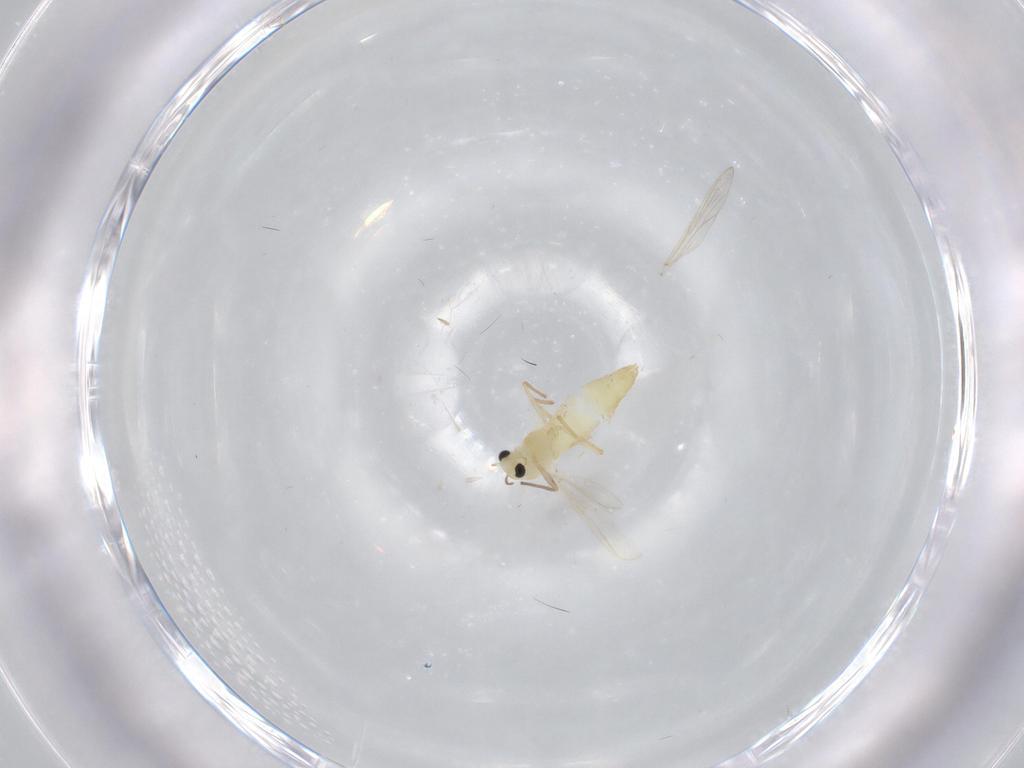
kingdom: Animalia
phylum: Arthropoda
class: Insecta
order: Diptera
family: Chironomidae
